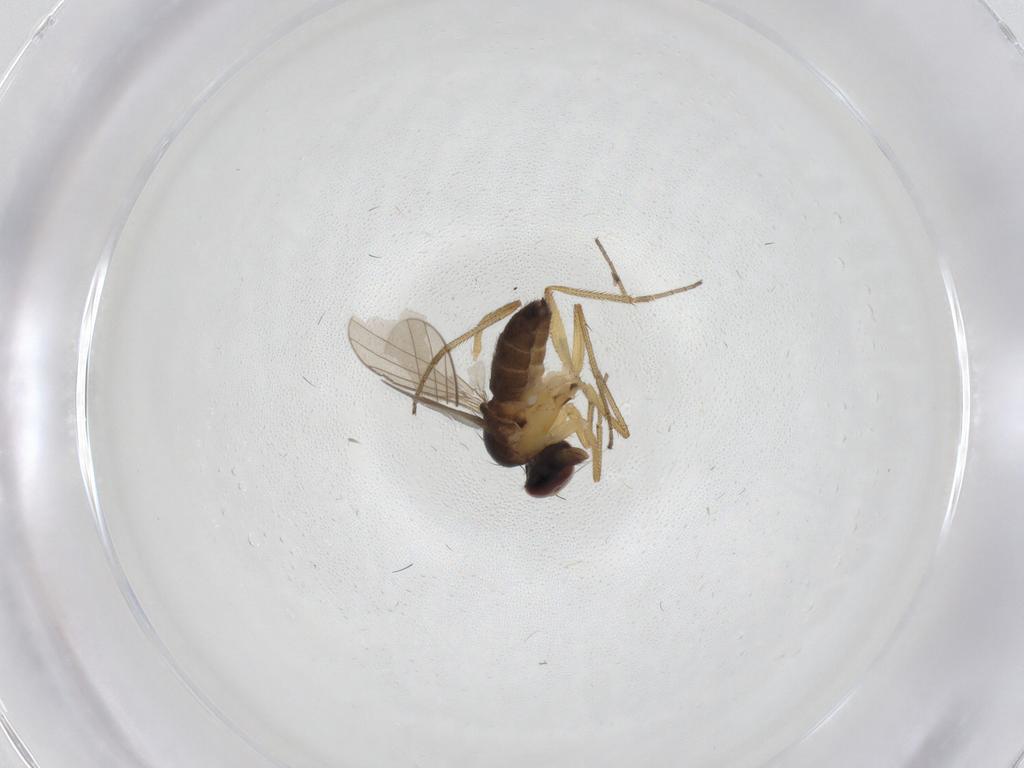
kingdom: Animalia
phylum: Arthropoda
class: Insecta
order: Diptera
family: Dolichopodidae
